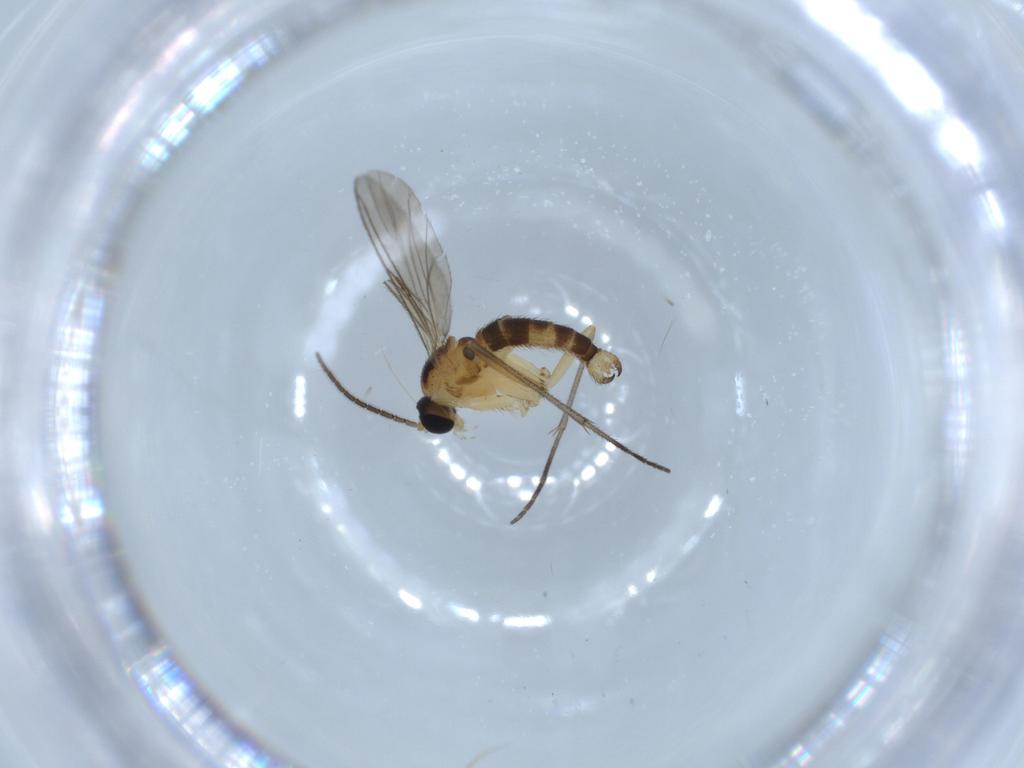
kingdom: Animalia
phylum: Arthropoda
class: Insecta
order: Diptera
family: Sciaridae
